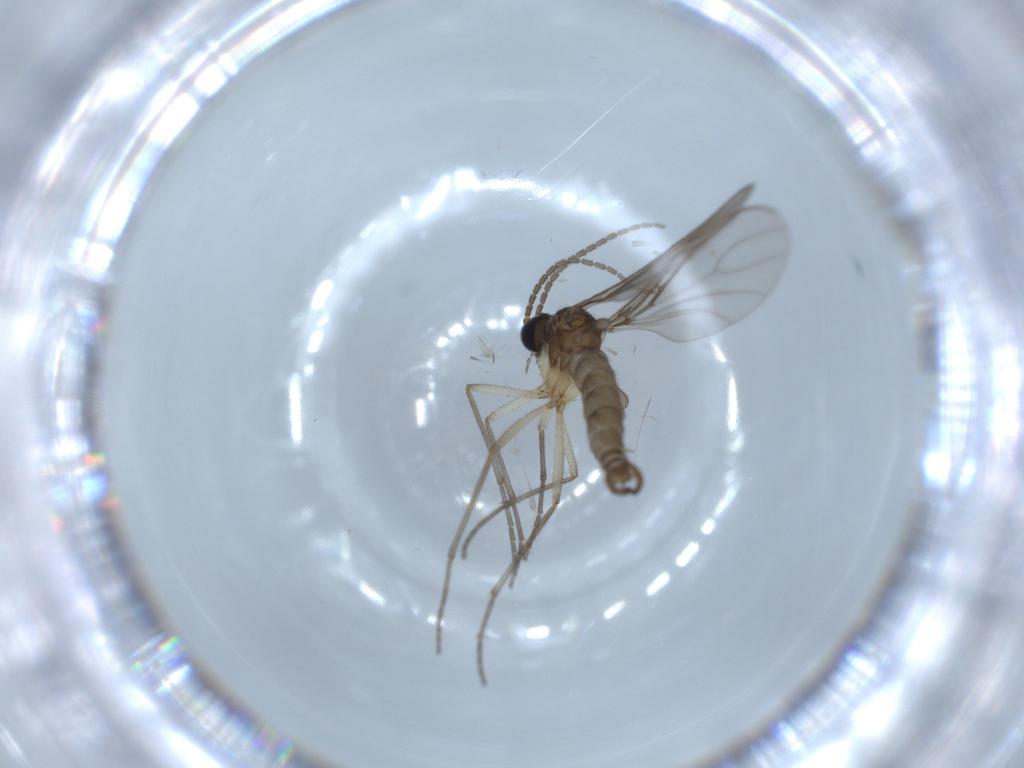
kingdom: Animalia
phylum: Arthropoda
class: Insecta
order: Diptera
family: Sciaridae
